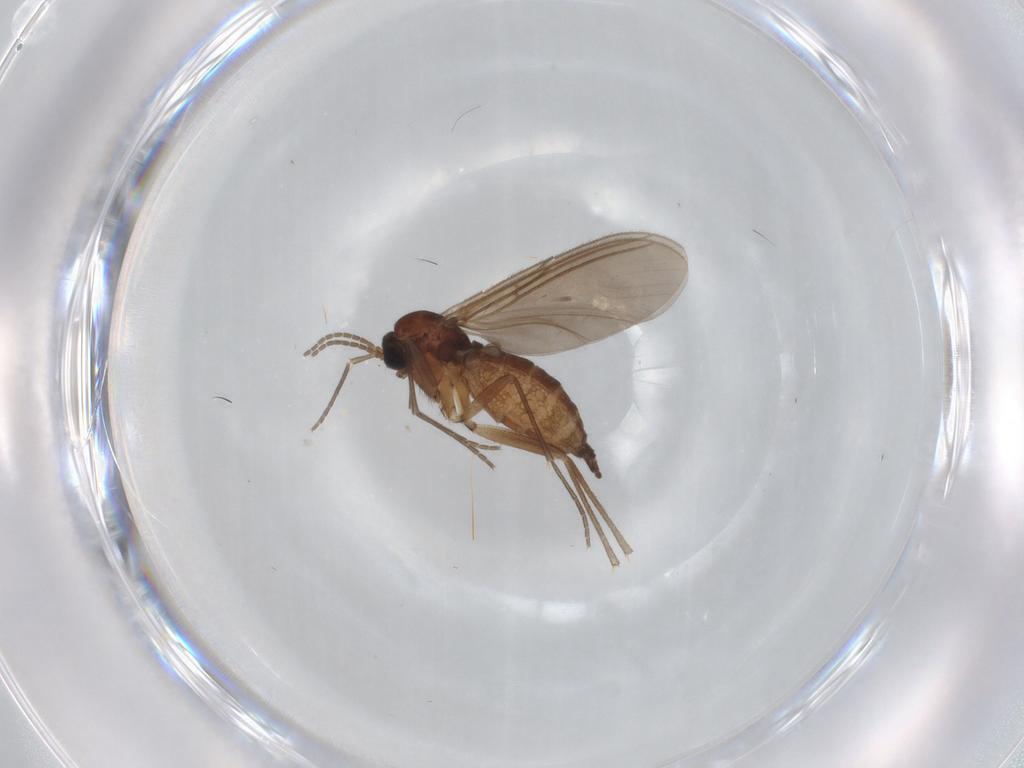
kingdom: Animalia
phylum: Arthropoda
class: Insecta
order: Diptera
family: Sciaridae
